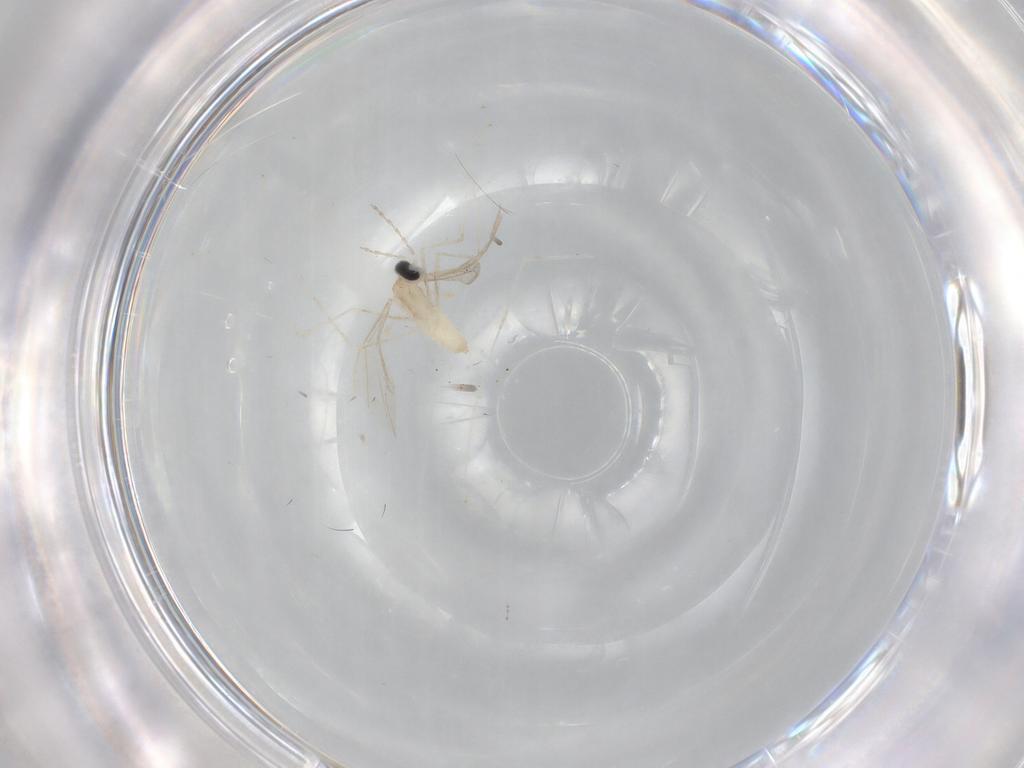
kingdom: Animalia
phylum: Arthropoda
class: Insecta
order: Diptera
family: Cecidomyiidae
